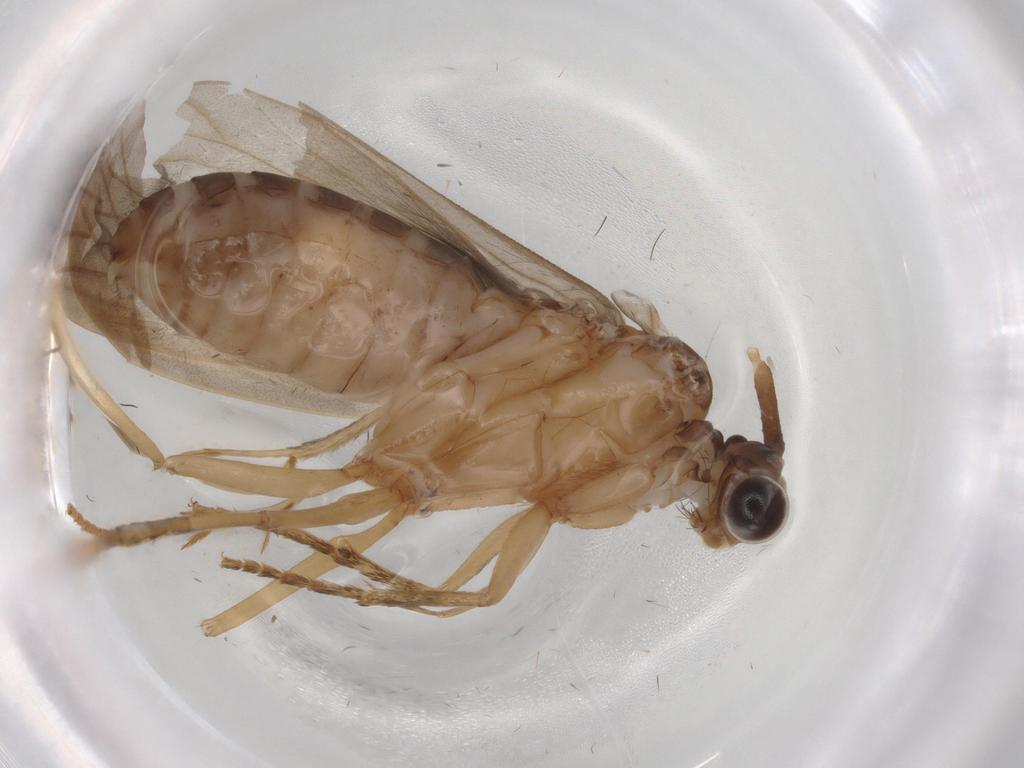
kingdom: Animalia
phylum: Arthropoda
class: Insecta
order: Trichoptera
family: Lepidostomatidae
